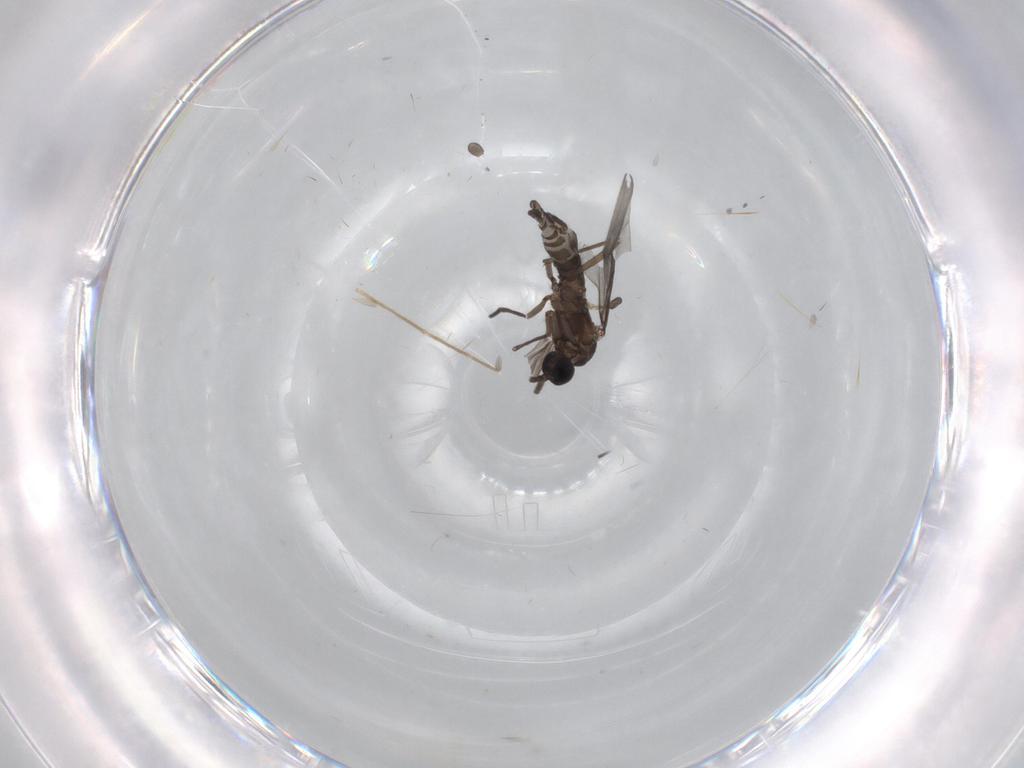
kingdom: Animalia
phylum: Arthropoda
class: Insecta
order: Diptera
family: Sciaridae
